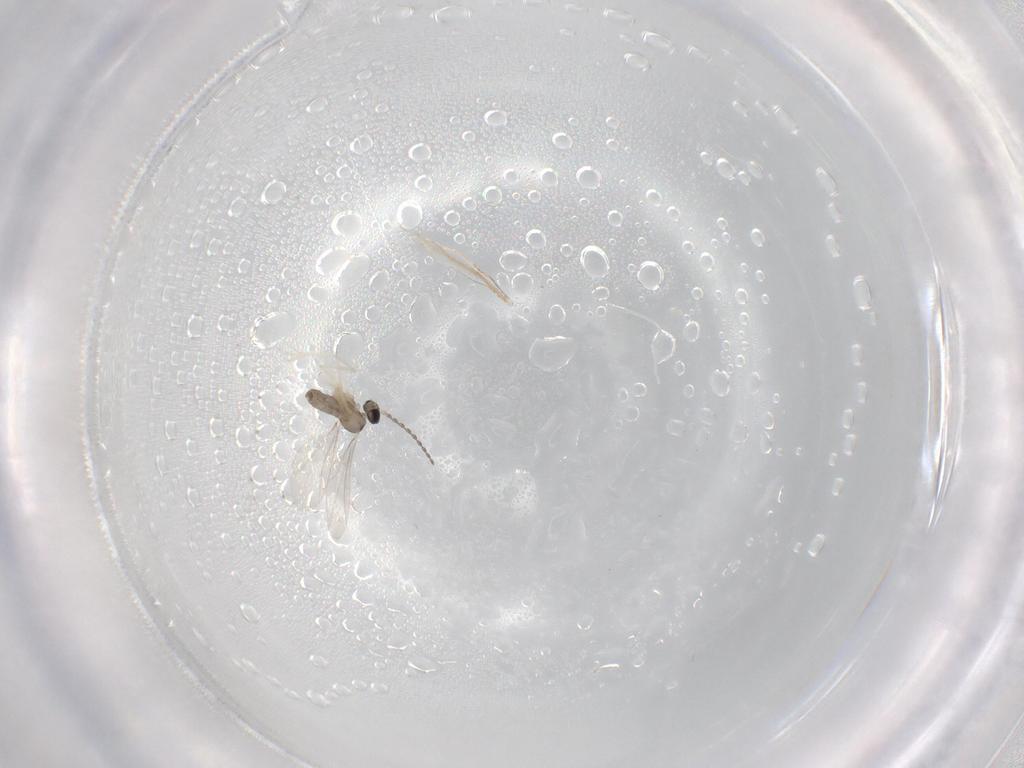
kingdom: Animalia
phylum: Arthropoda
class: Insecta
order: Diptera
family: Cecidomyiidae
